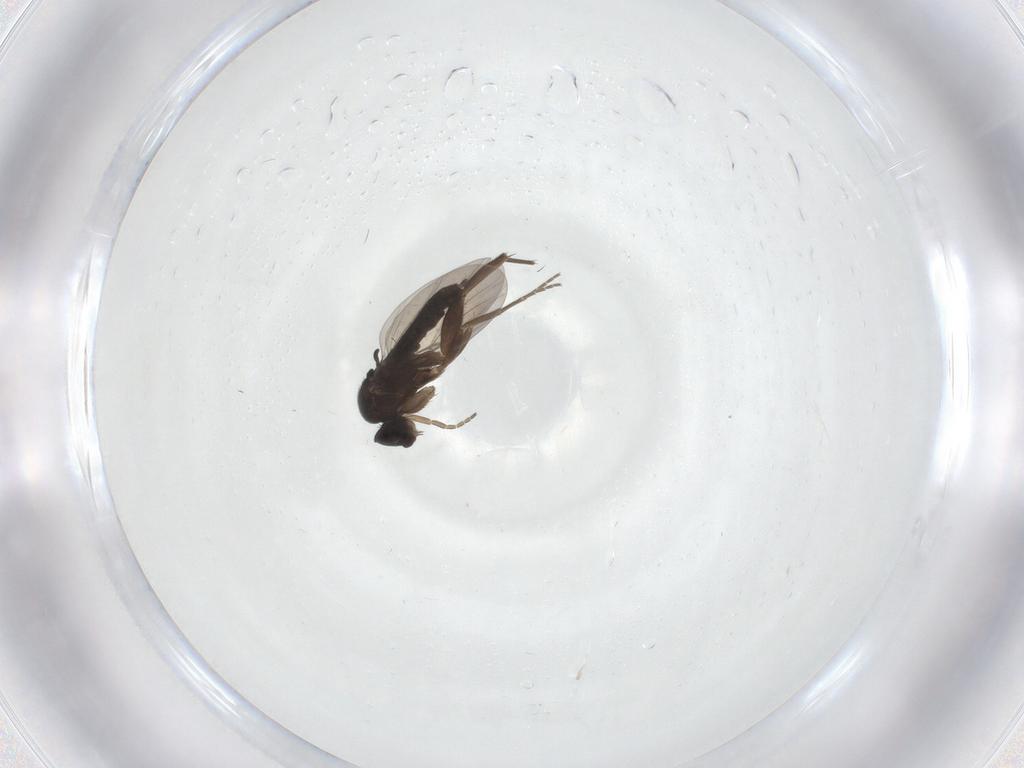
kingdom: Animalia
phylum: Arthropoda
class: Insecta
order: Diptera
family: Phoridae
